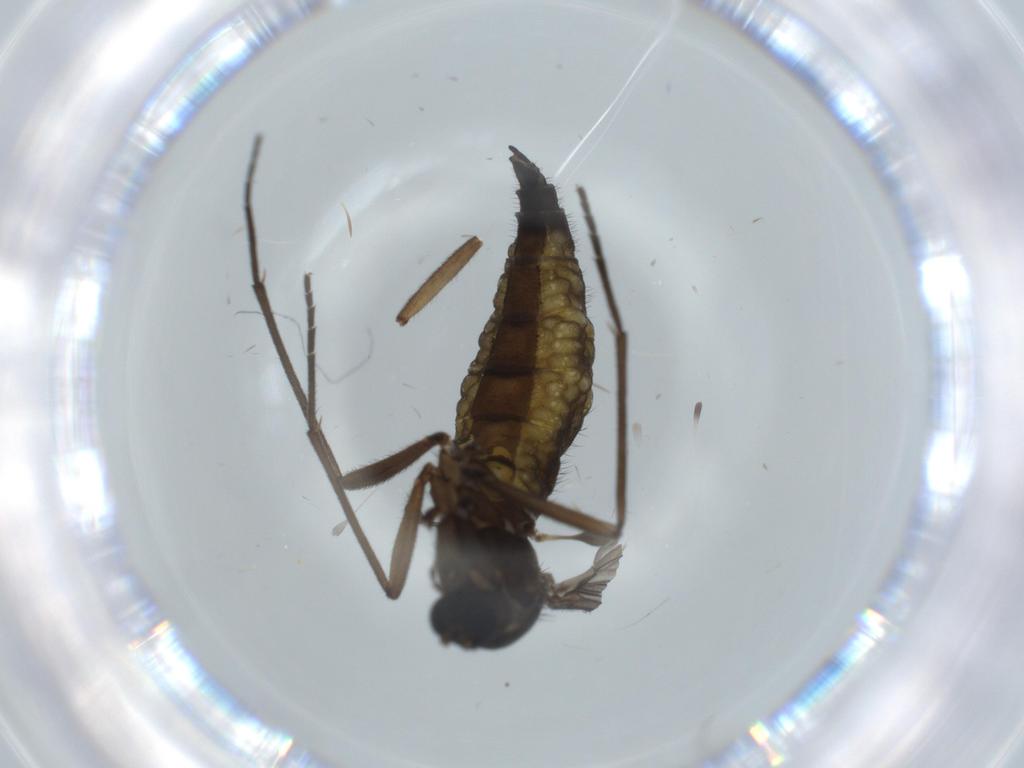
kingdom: Animalia
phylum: Arthropoda
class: Insecta
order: Diptera
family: Sciaridae
